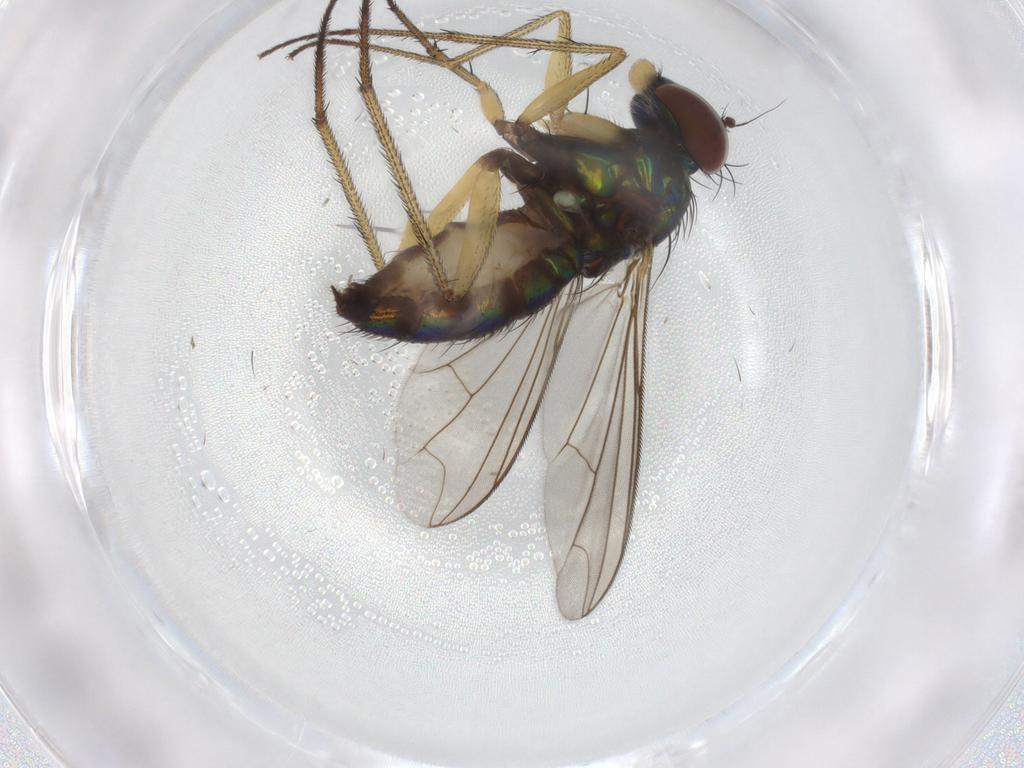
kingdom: Animalia
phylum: Arthropoda
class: Insecta
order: Diptera
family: Dolichopodidae
